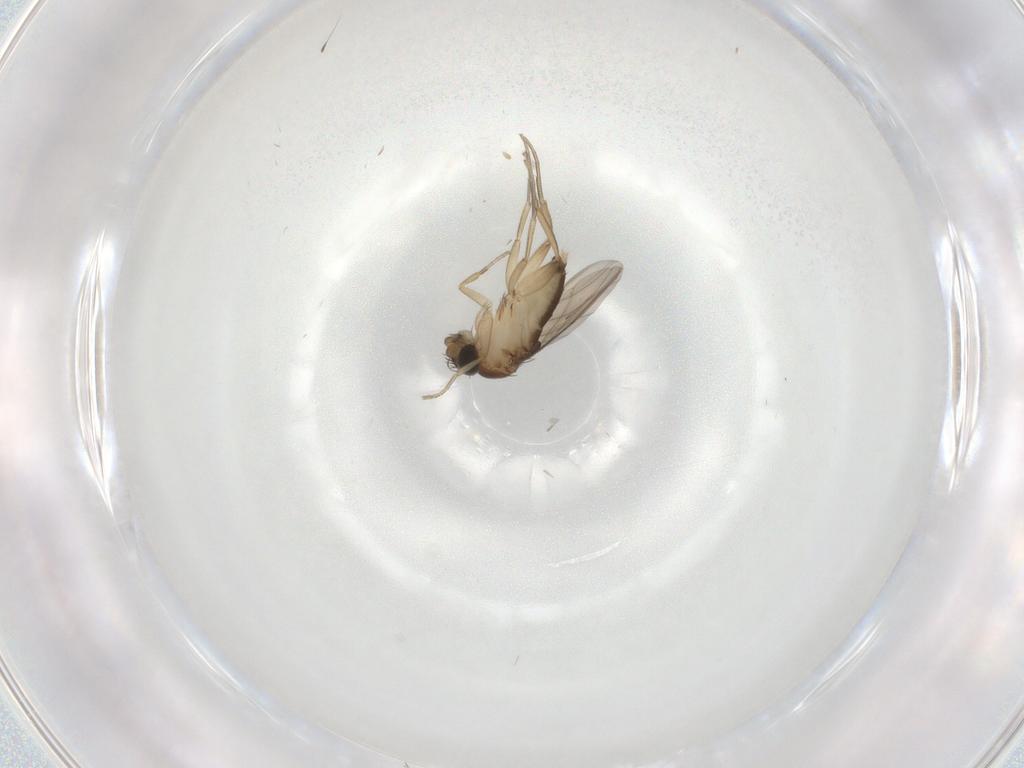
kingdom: Animalia
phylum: Arthropoda
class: Insecta
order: Diptera
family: Phoridae
